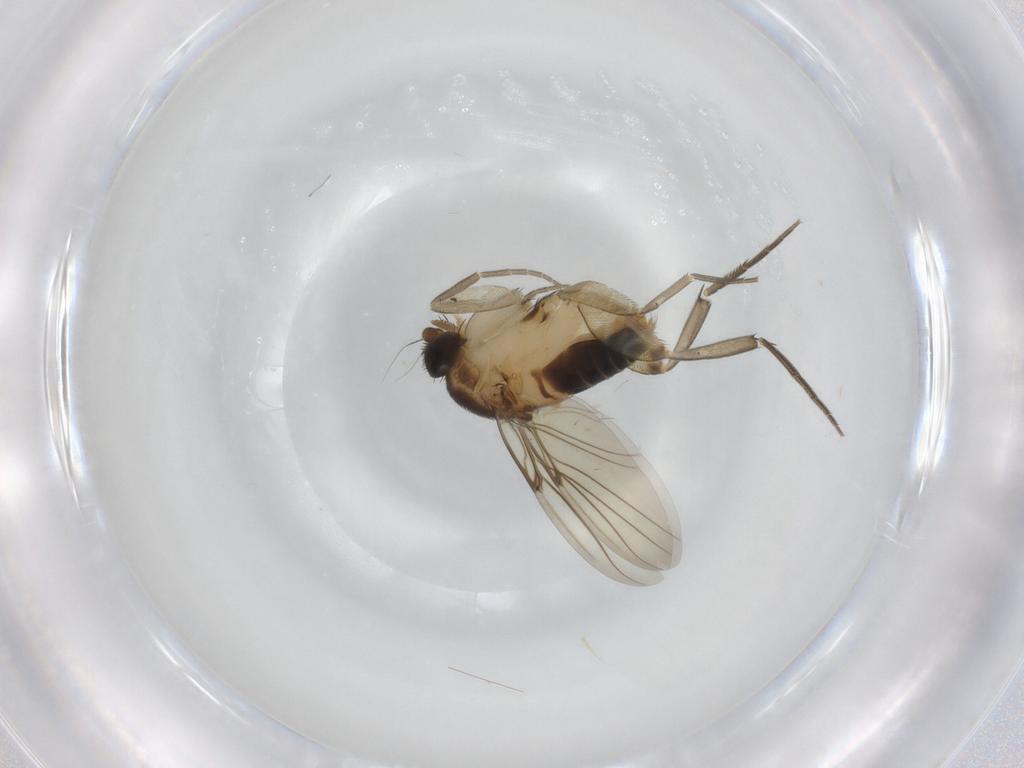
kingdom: Animalia
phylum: Arthropoda
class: Insecta
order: Diptera
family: Phoridae
